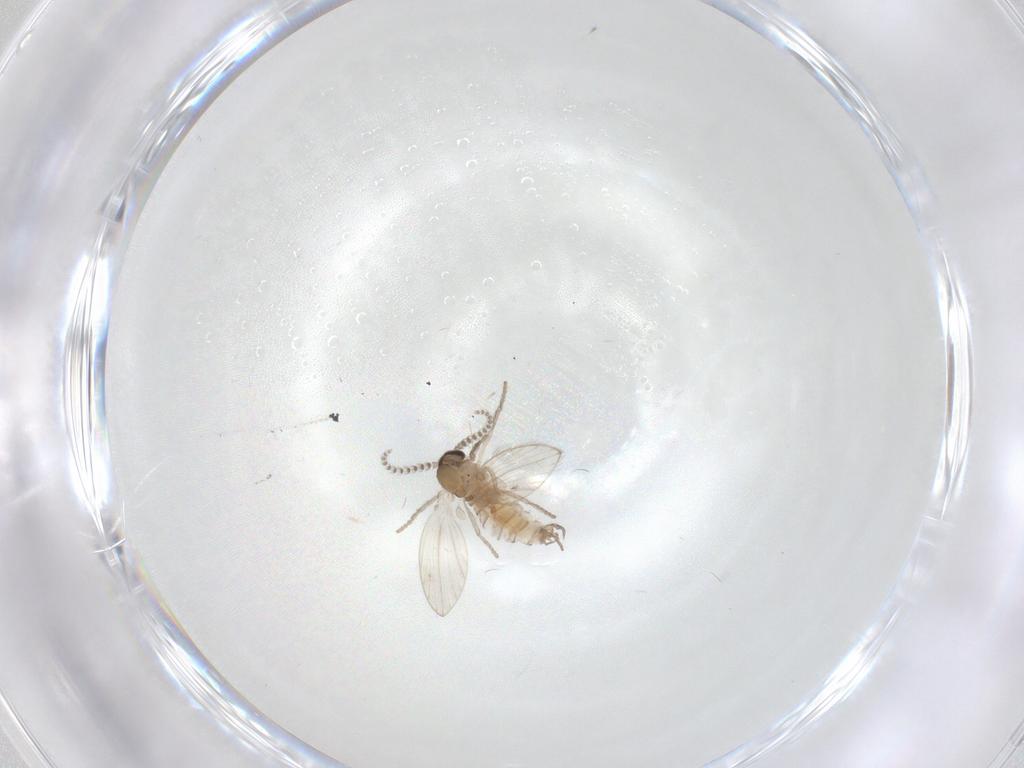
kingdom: Animalia
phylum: Arthropoda
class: Insecta
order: Diptera
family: Psychodidae
